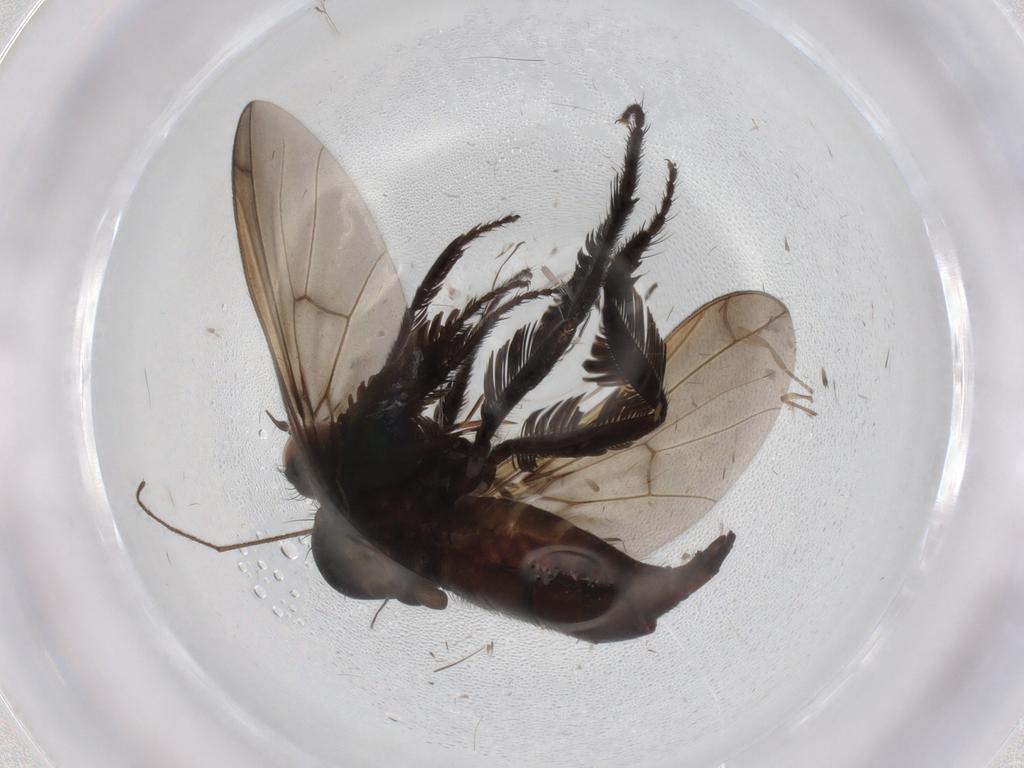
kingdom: Animalia
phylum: Arthropoda
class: Insecta
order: Diptera
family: Empididae
